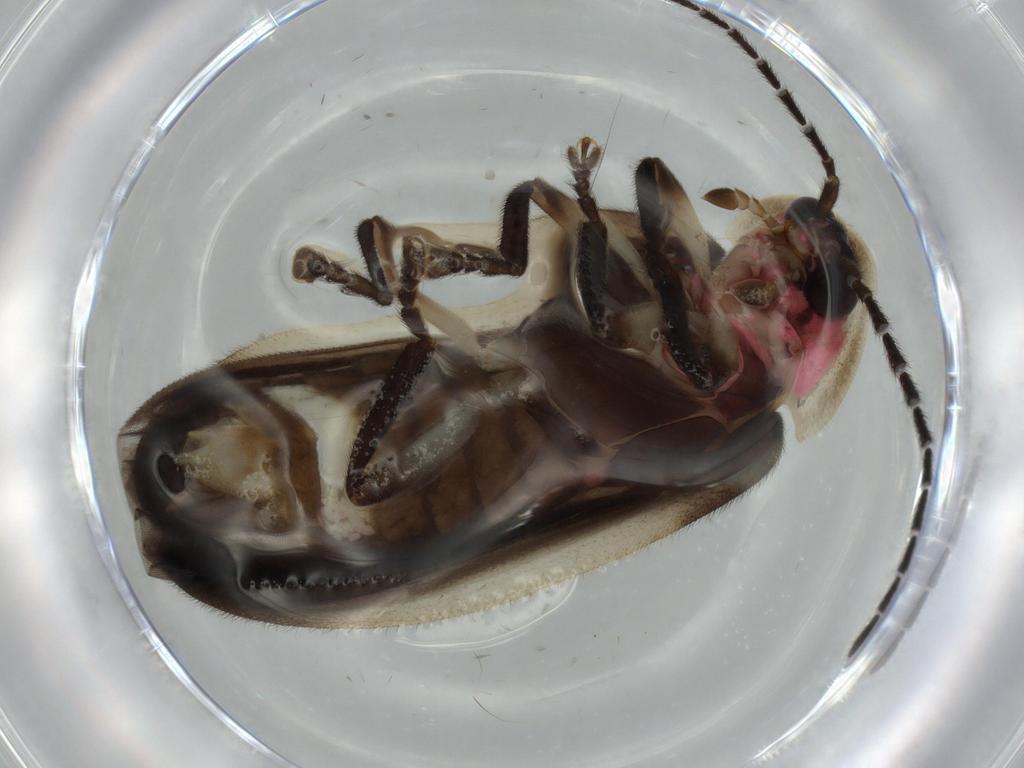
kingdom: Animalia
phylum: Arthropoda
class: Insecta
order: Coleoptera
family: Lampyridae
